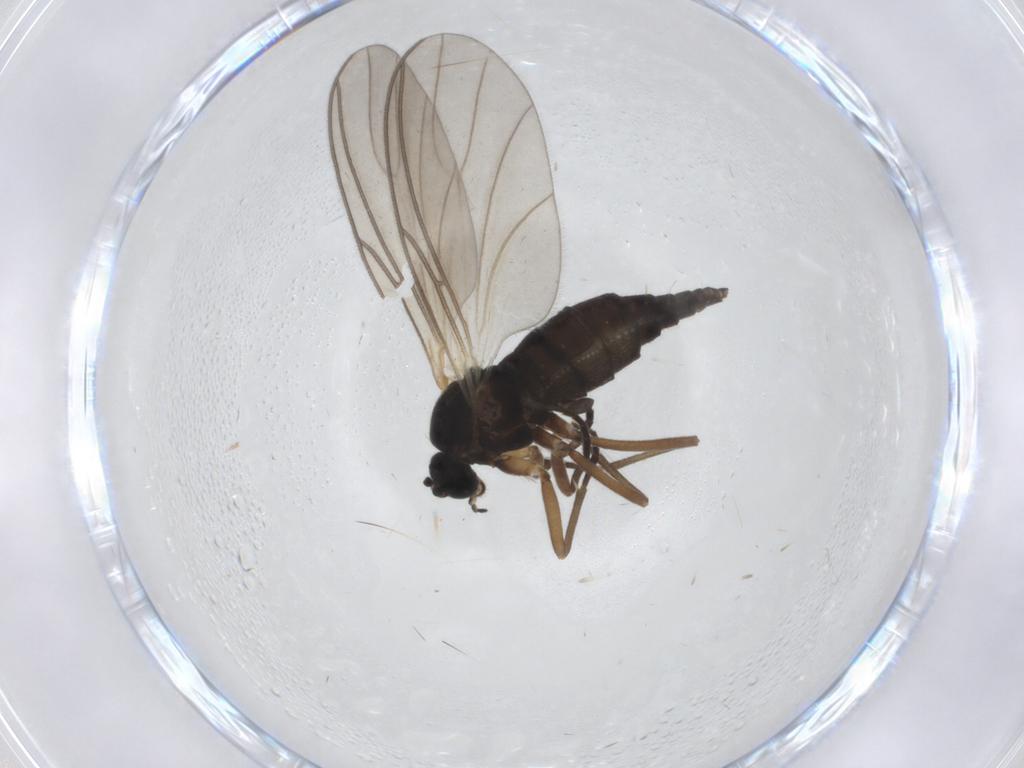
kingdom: Animalia
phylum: Arthropoda
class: Insecta
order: Diptera
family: Sciaridae
